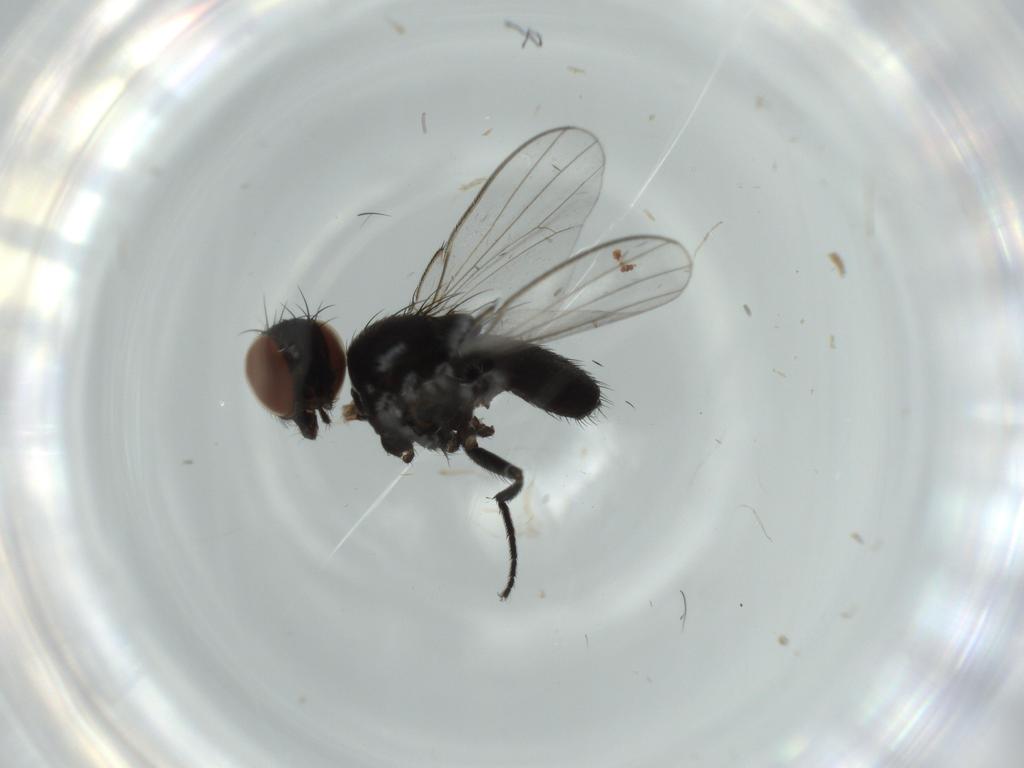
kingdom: Animalia
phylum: Arthropoda
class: Insecta
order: Diptera
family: Milichiidae
